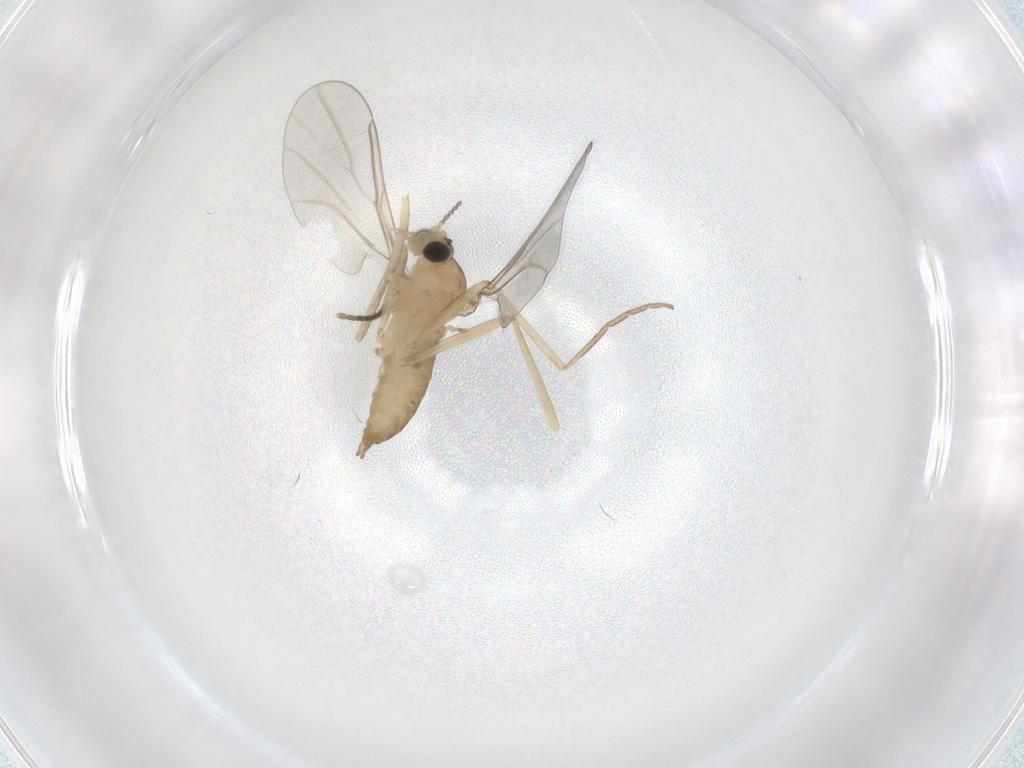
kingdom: Animalia
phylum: Arthropoda
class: Insecta
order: Diptera
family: Cecidomyiidae
